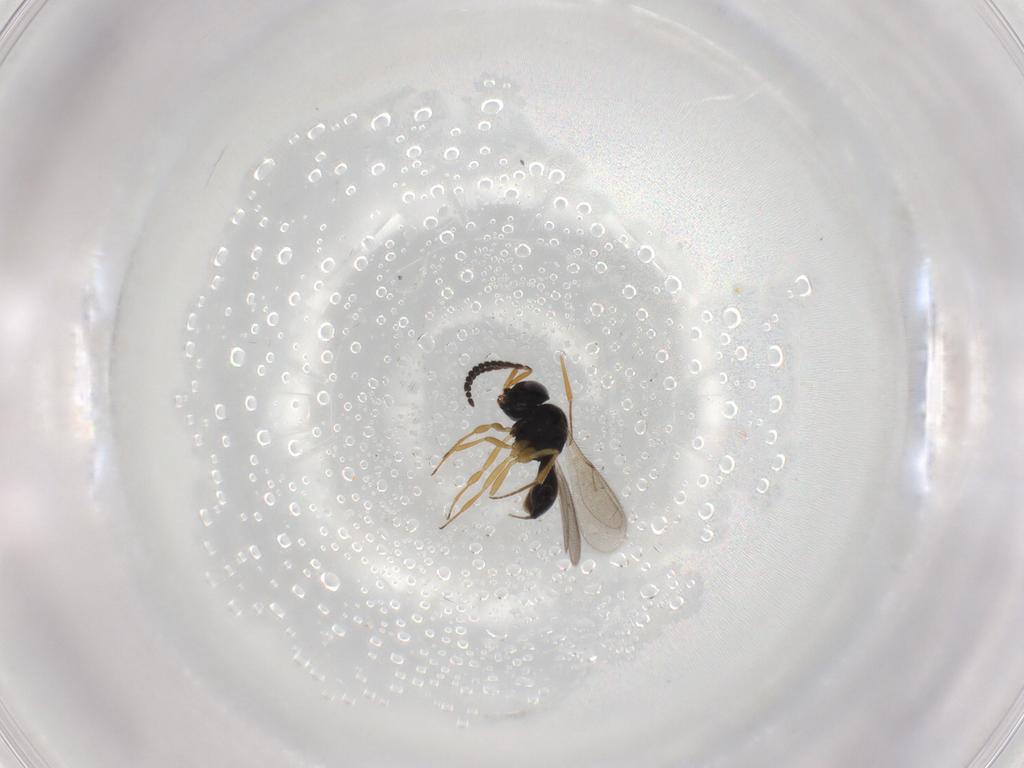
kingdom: Animalia
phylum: Arthropoda
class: Insecta
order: Hymenoptera
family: Scelionidae
